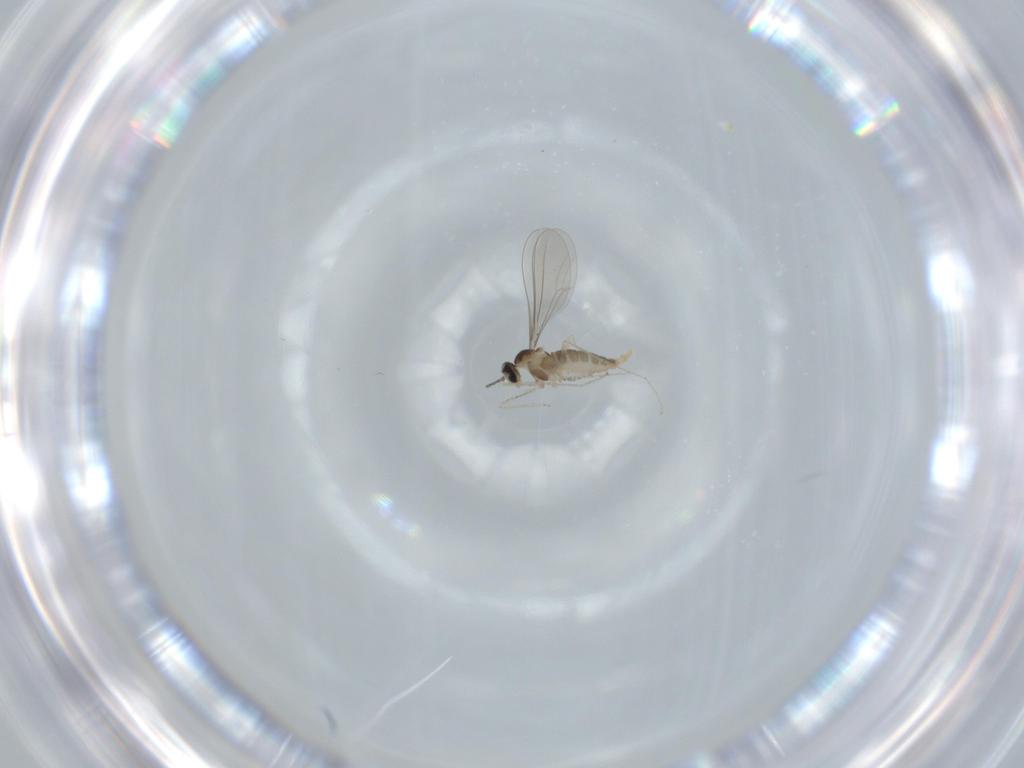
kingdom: Animalia
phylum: Arthropoda
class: Insecta
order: Diptera
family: Cecidomyiidae
